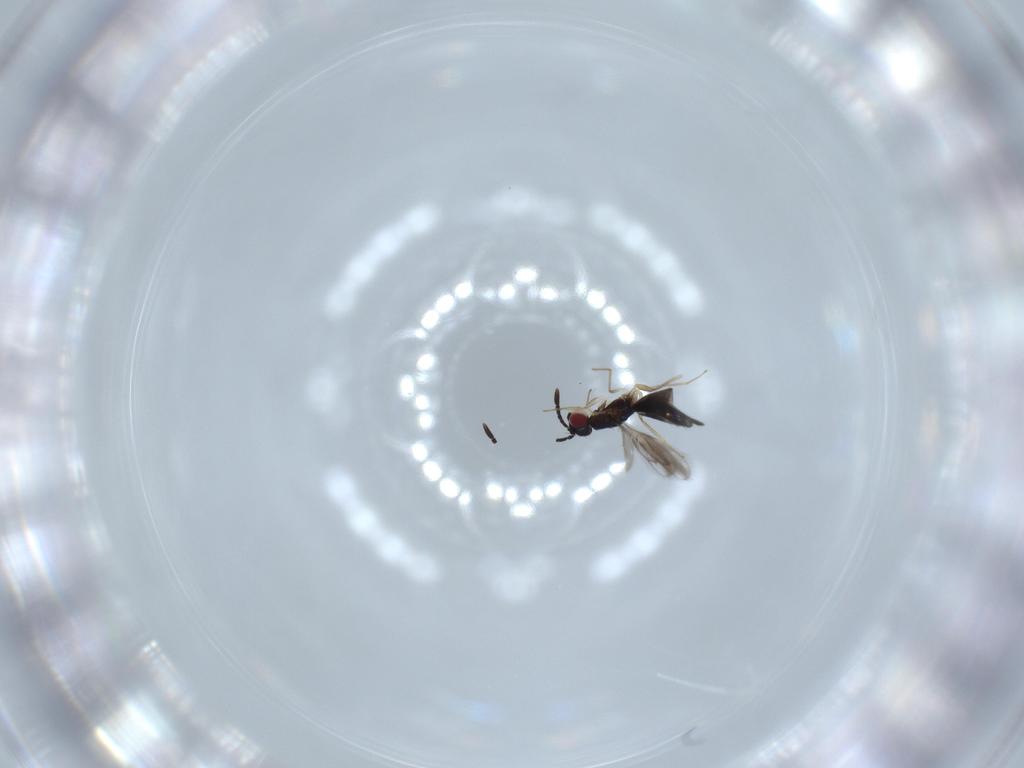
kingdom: Animalia
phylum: Arthropoda
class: Insecta
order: Hymenoptera
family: Pteromalidae
